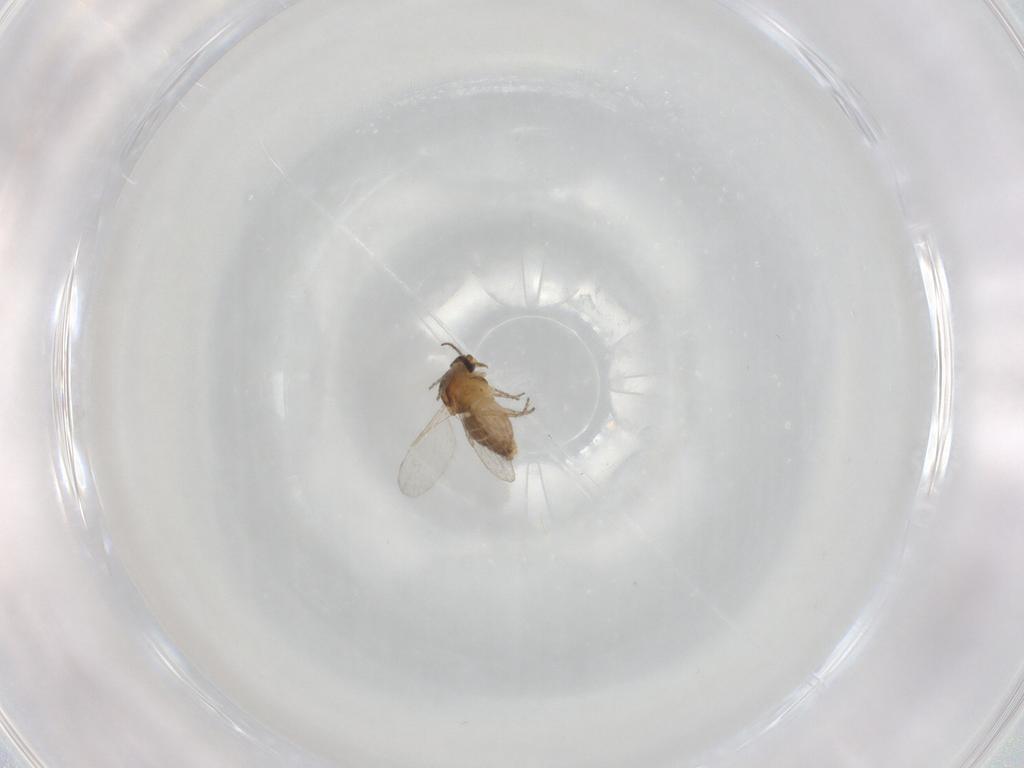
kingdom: Animalia
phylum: Arthropoda
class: Insecta
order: Diptera
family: Ceratopogonidae
